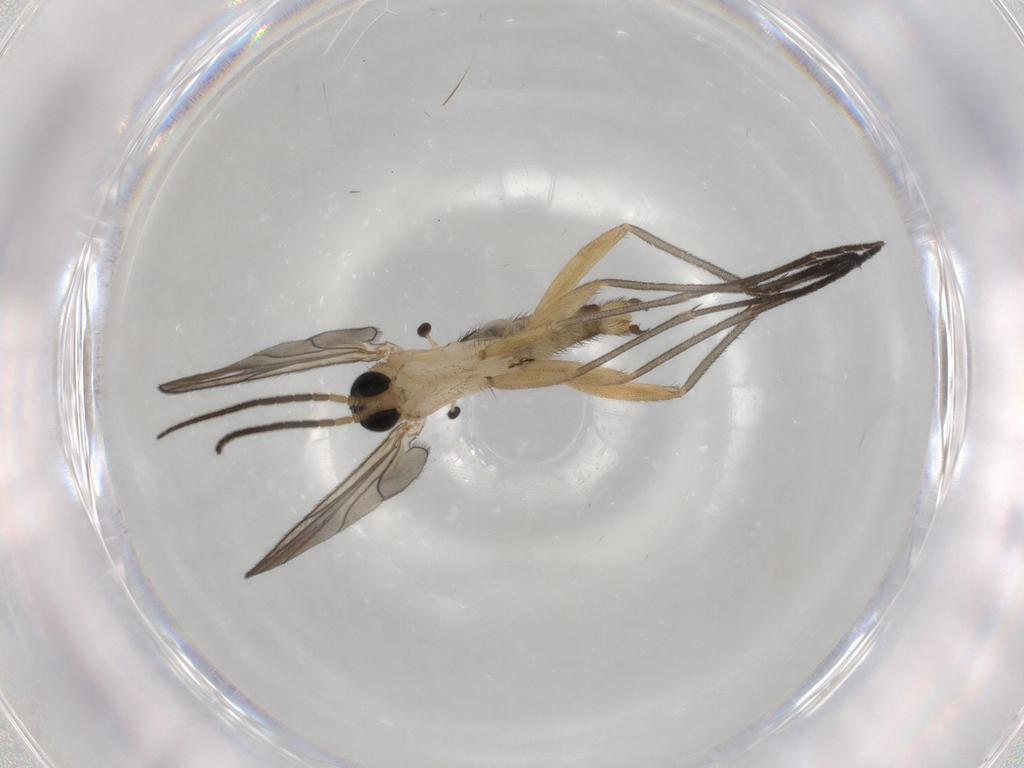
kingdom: Animalia
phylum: Arthropoda
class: Insecta
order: Diptera
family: Sciaridae
